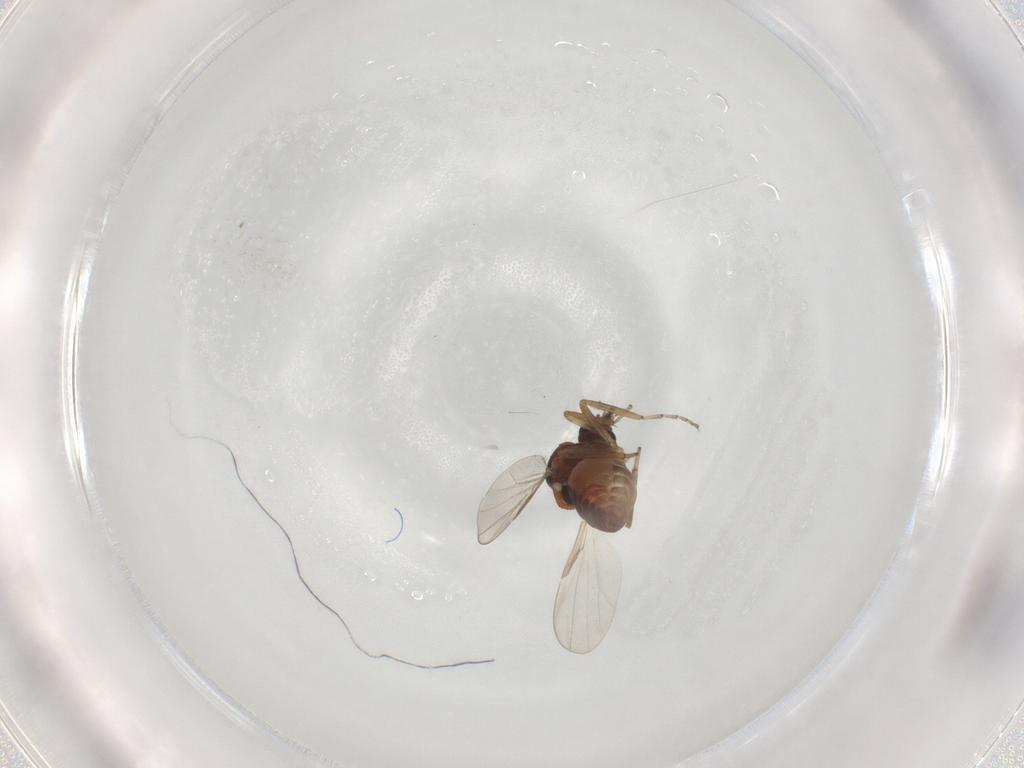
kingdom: Animalia
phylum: Arthropoda
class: Insecta
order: Diptera
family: Ceratopogonidae
